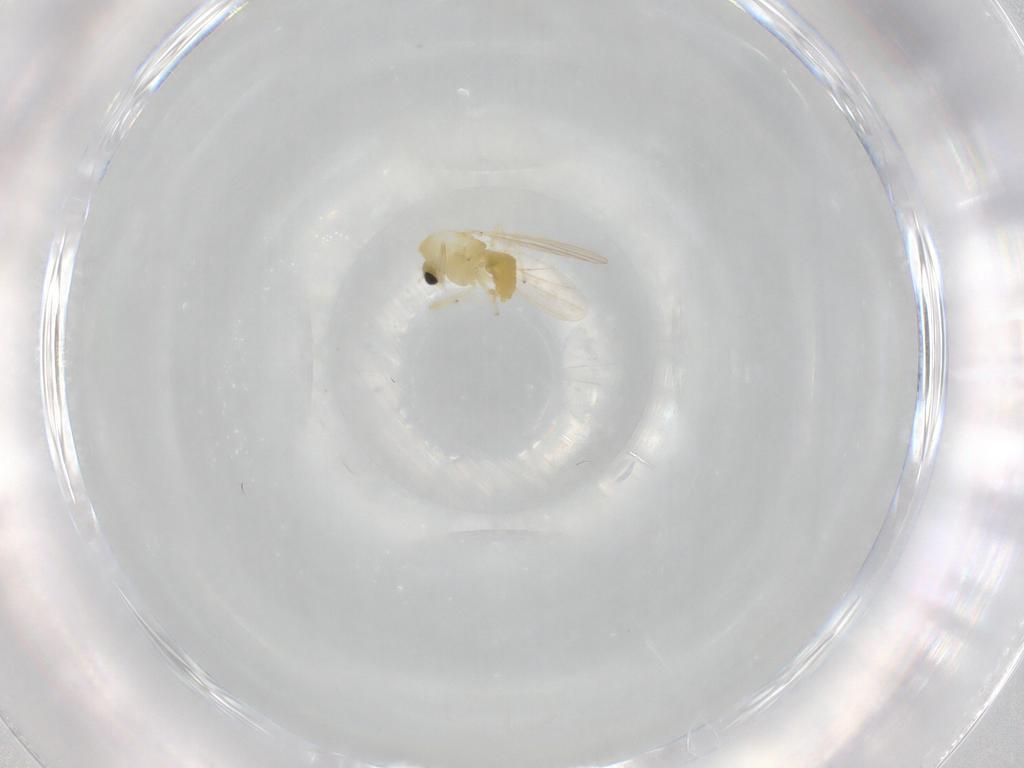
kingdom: Animalia
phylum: Arthropoda
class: Insecta
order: Diptera
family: Chironomidae
